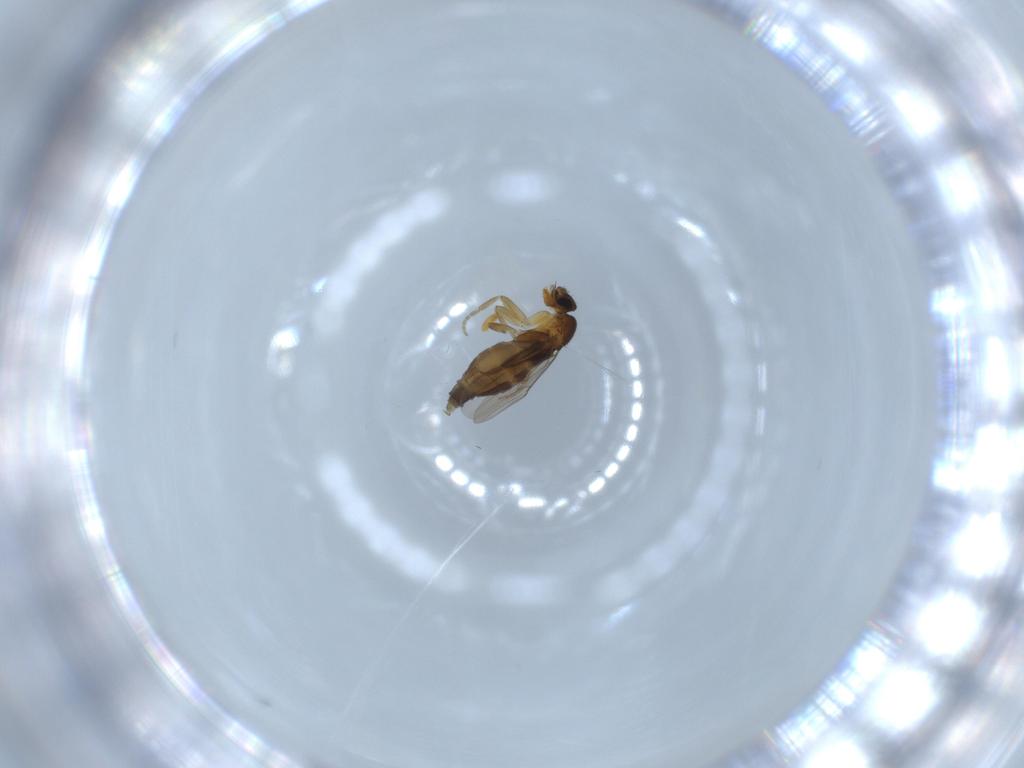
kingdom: Animalia
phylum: Arthropoda
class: Insecta
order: Diptera
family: Phoridae
